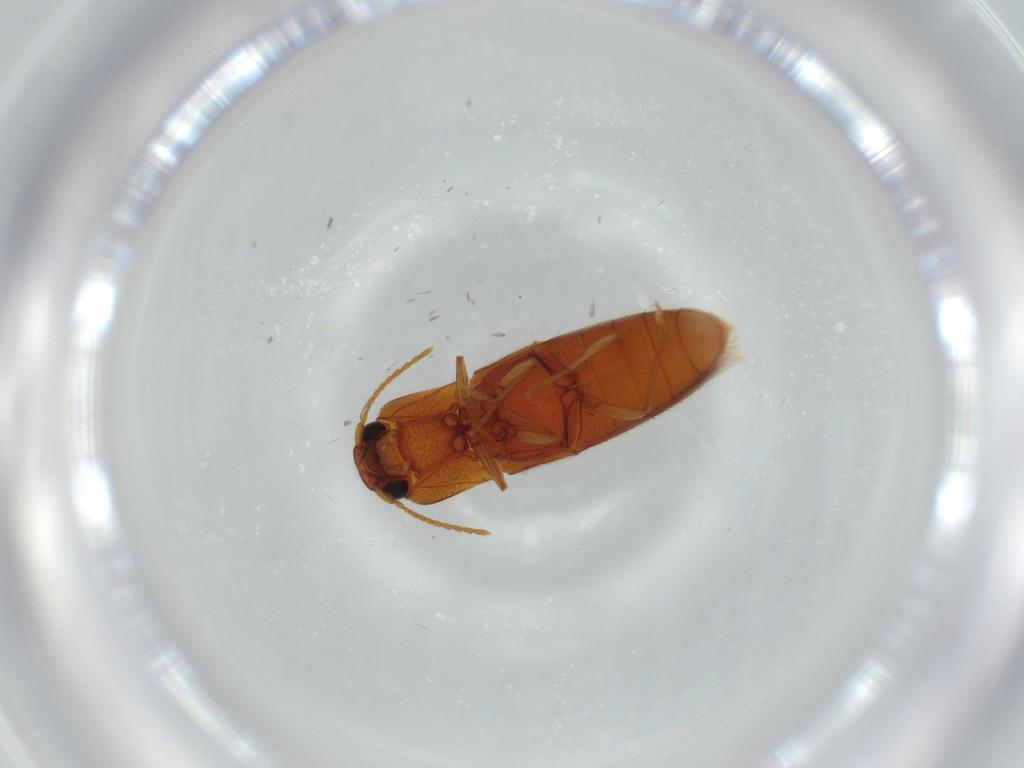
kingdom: Animalia
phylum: Arthropoda
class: Insecta
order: Coleoptera
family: Elateridae
